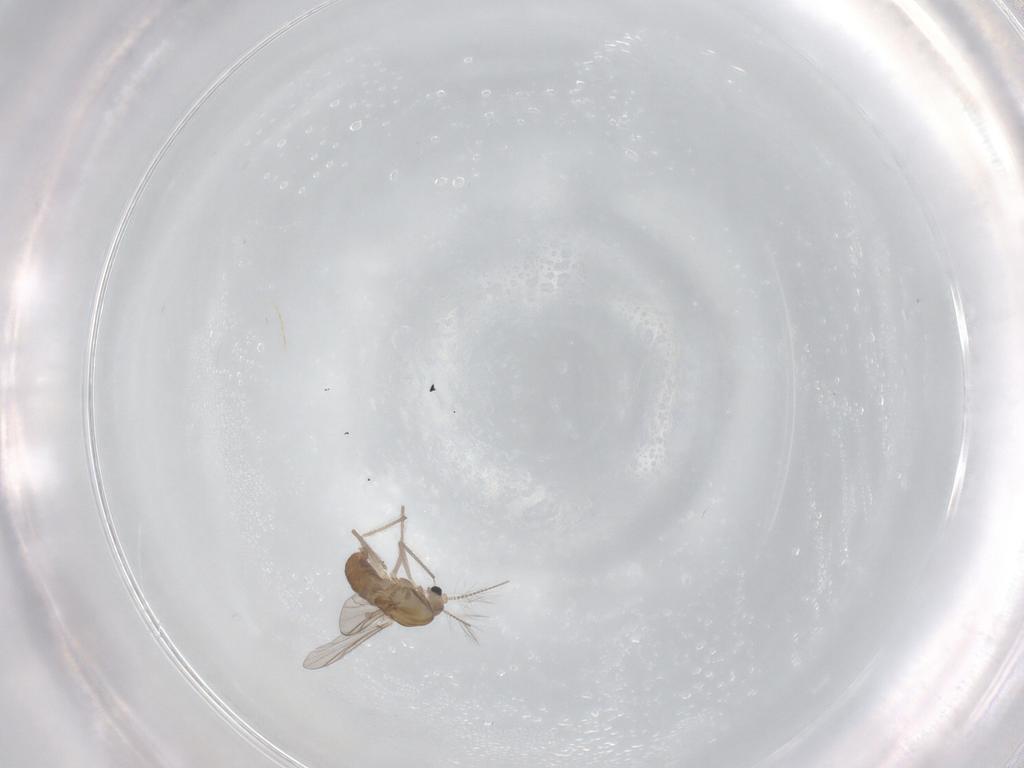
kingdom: Animalia
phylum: Arthropoda
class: Insecta
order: Diptera
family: Chironomidae
